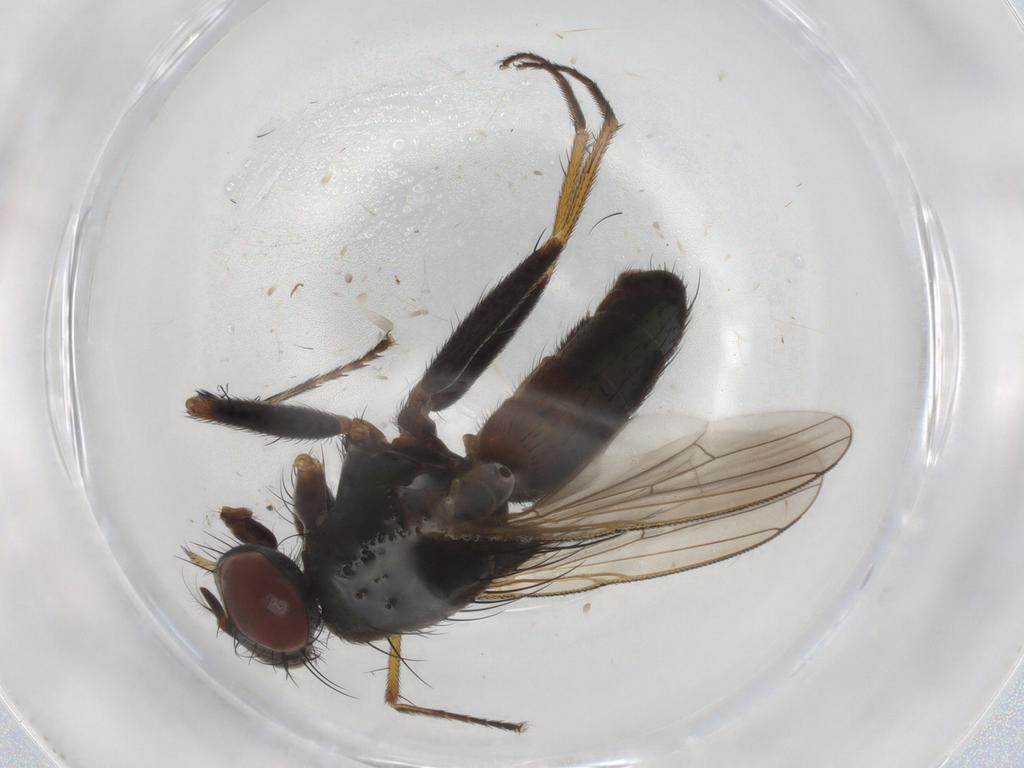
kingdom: Animalia
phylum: Arthropoda
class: Insecta
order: Diptera
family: Muscidae
